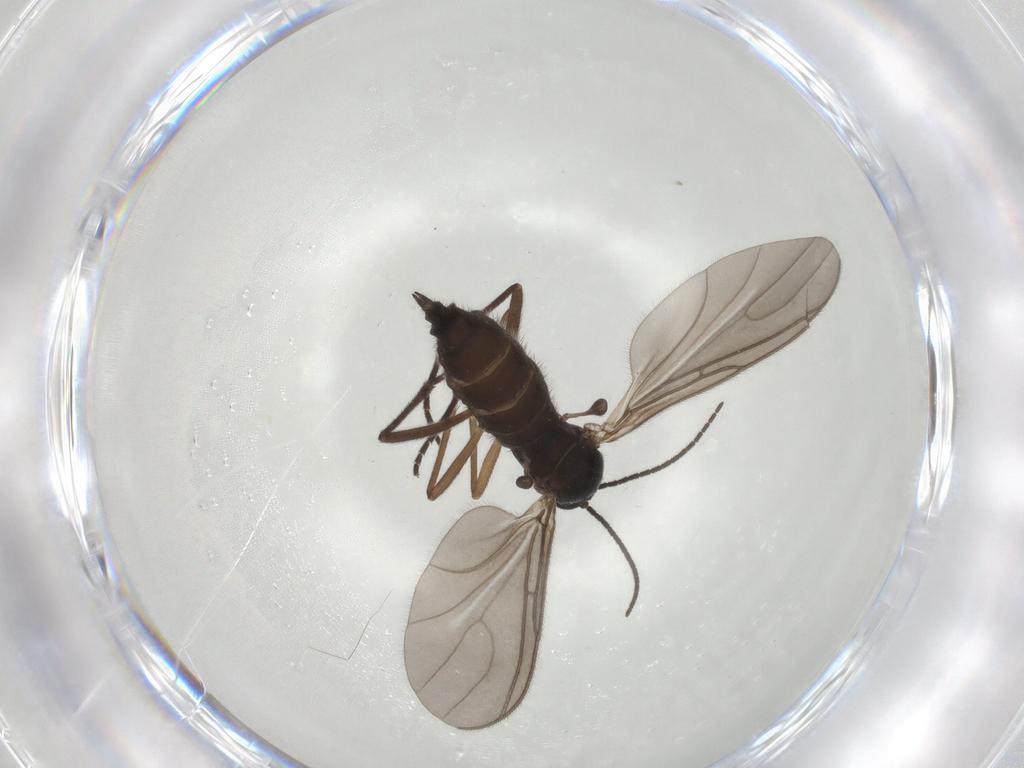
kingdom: Animalia
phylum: Arthropoda
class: Insecta
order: Diptera
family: Sciaridae
